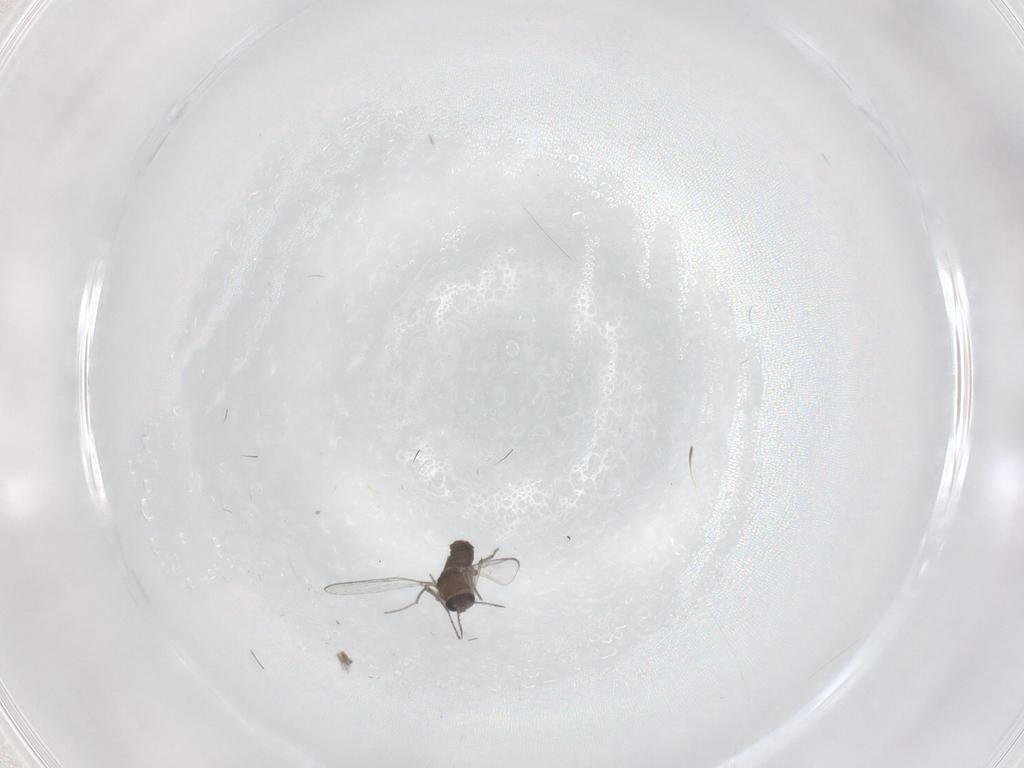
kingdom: Animalia
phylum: Arthropoda
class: Insecta
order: Diptera
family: Chironomidae
